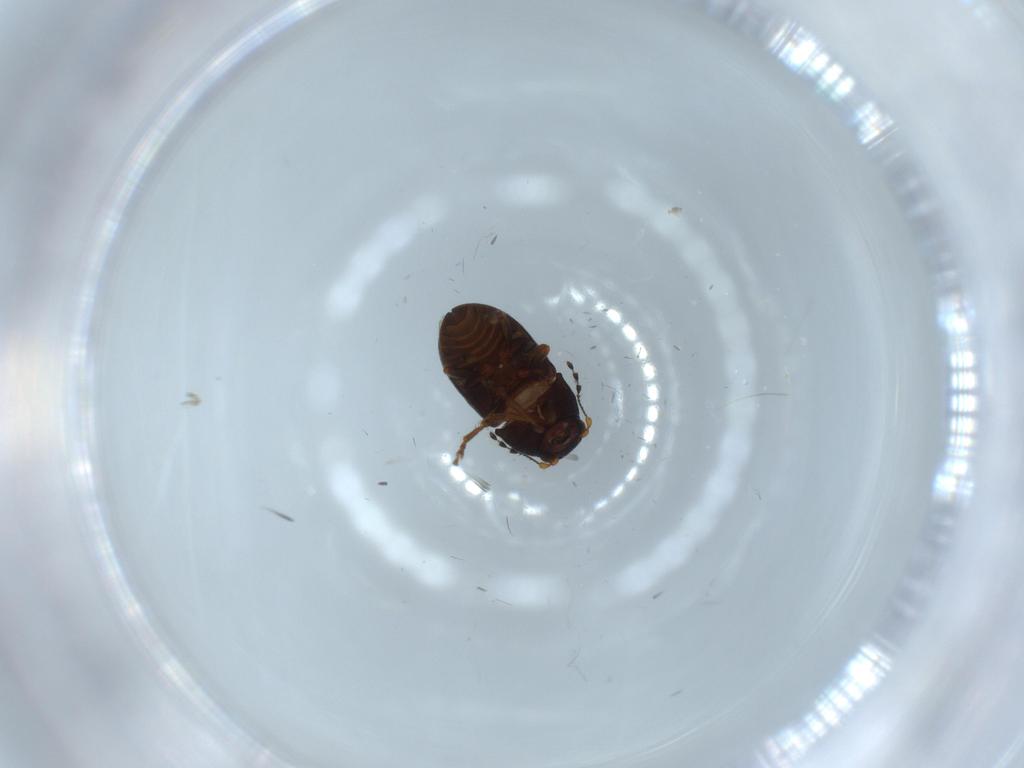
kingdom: Animalia
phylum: Arthropoda
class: Insecta
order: Coleoptera
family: Anthribidae
